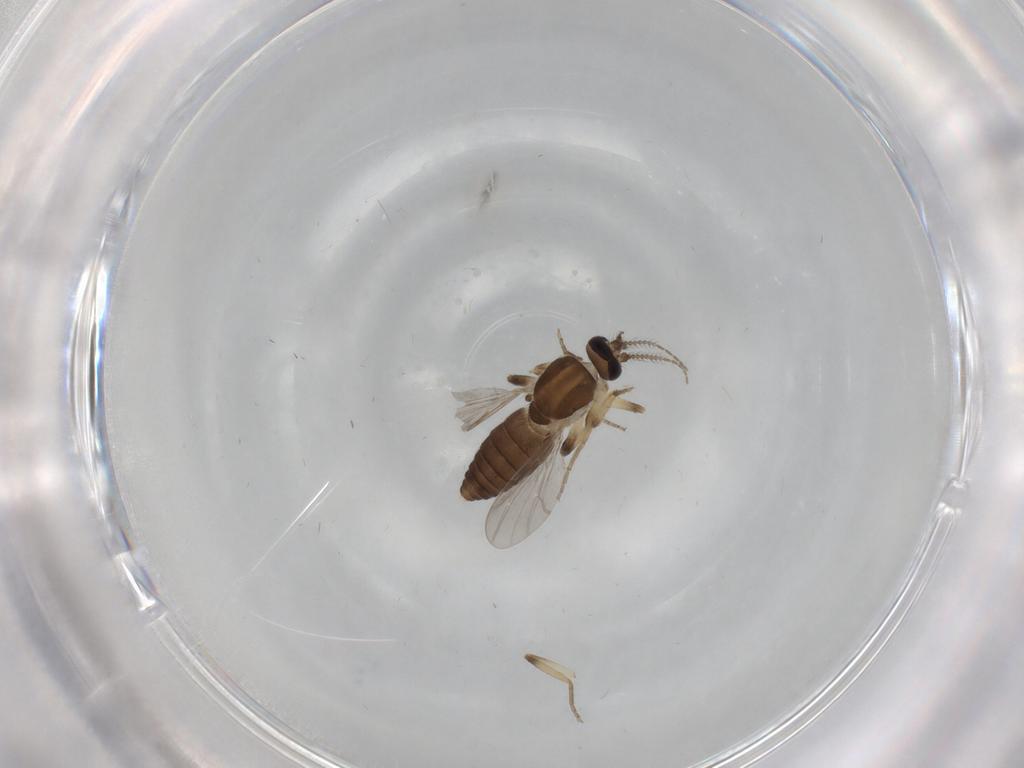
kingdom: Animalia
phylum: Arthropoda
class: Insecta
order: Diptera
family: Ceratopogonidae
